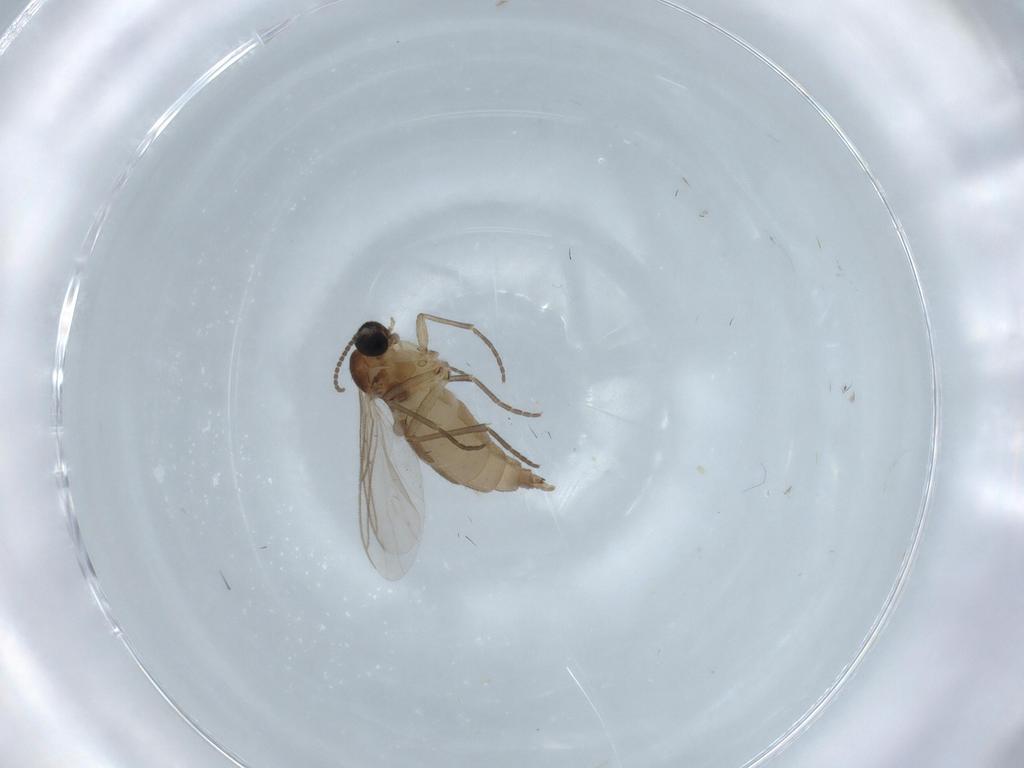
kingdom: Animalia
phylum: Arthropoda
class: Insecta
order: Diptera
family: Sciaridae
